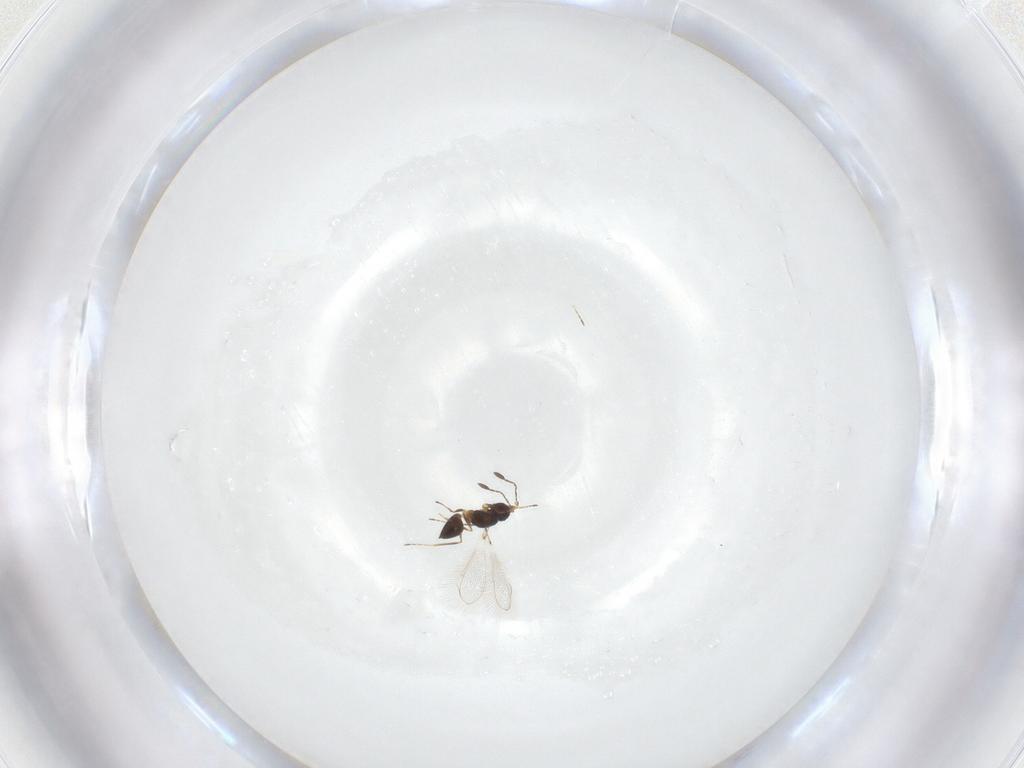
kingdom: Animalia
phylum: Arthropoda
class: Insecta
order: Hymenoptera
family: Mymaridae
